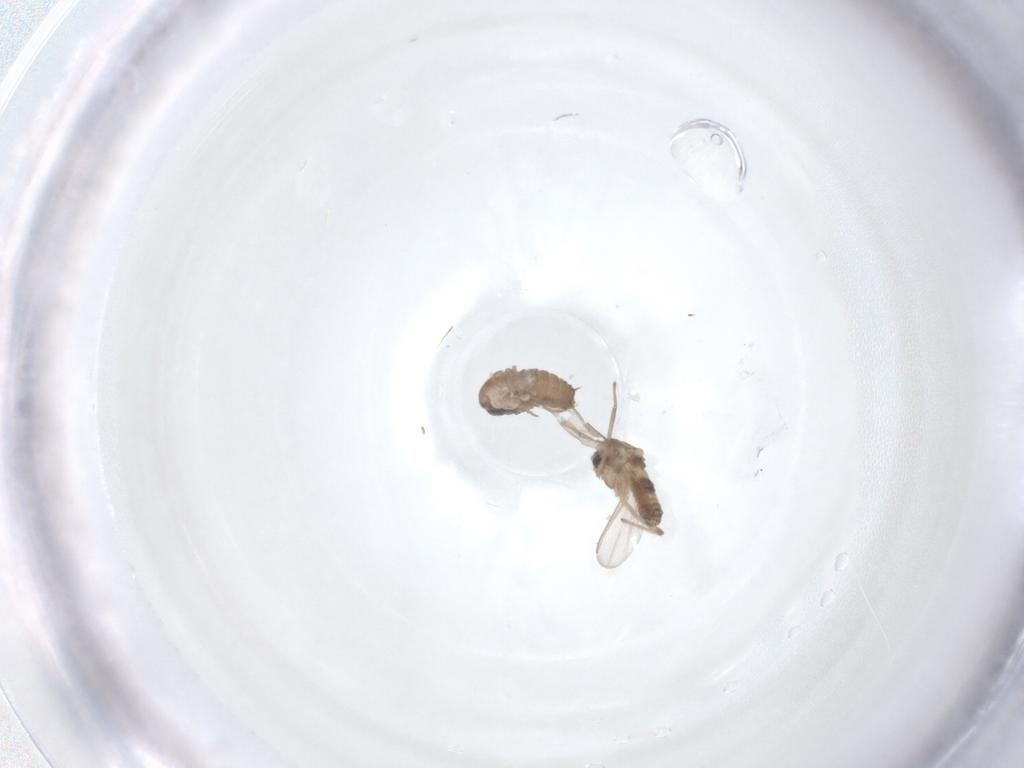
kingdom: Animalia
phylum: Arthropoda
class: Insecta
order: Diptera
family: Psychodidae
